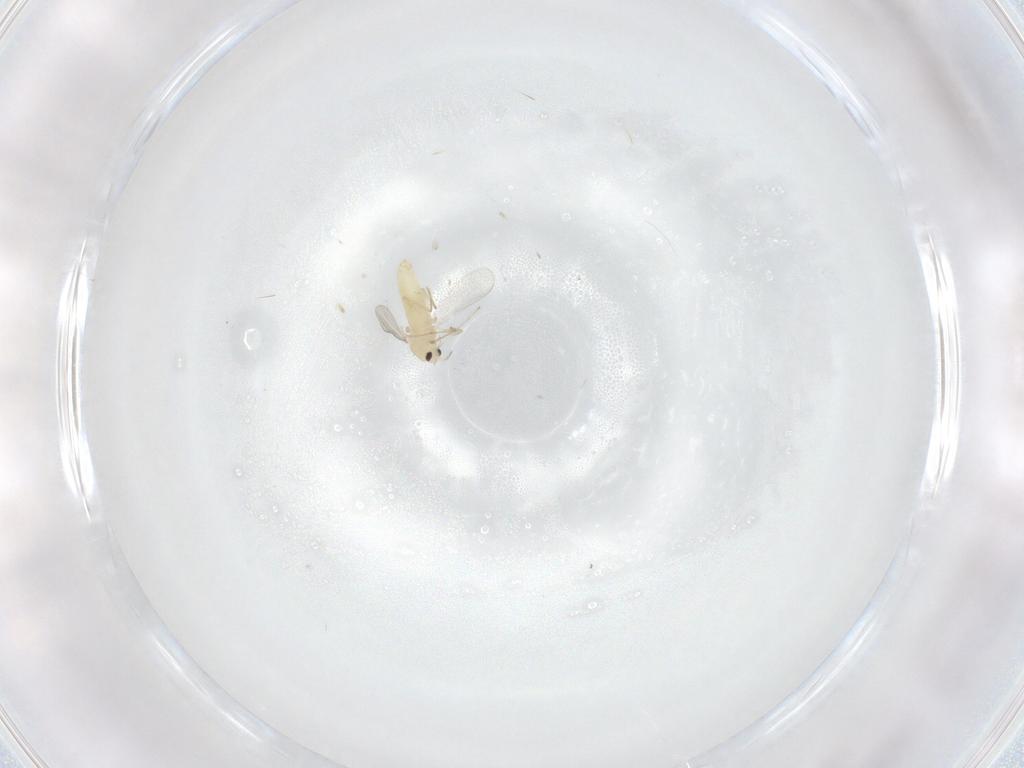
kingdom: Animalia
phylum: Arthropoda
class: Insecta
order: Diptera
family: Chironomidae
